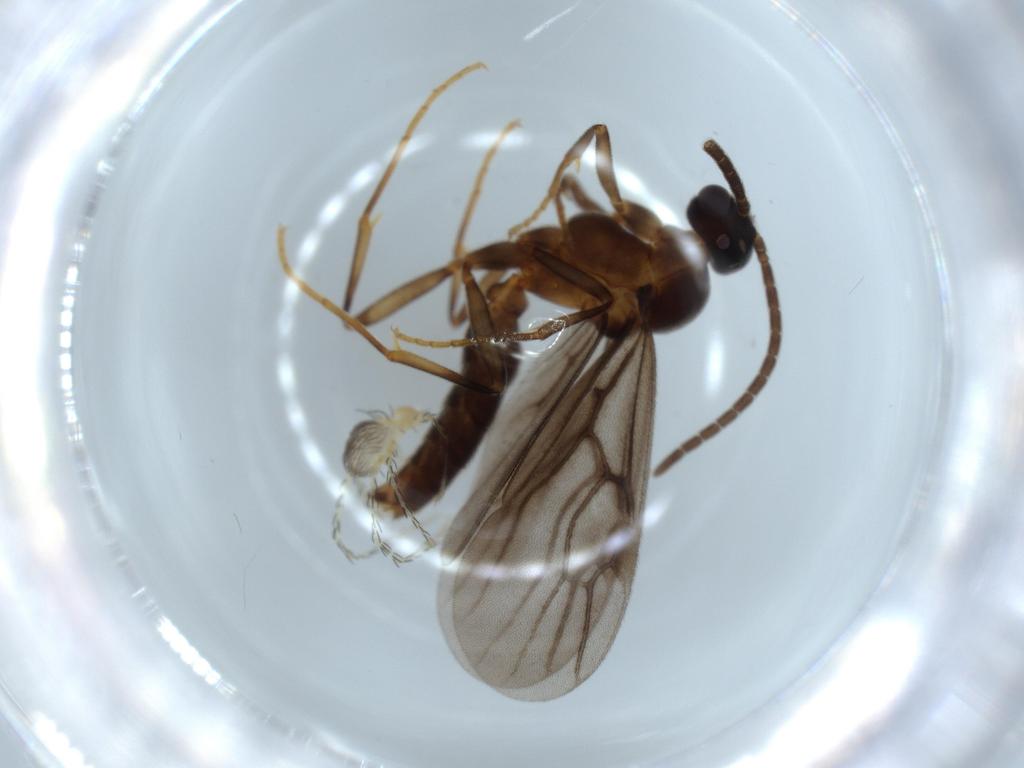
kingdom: Animalia
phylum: Arthropoda
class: Insecta
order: Hymenoptera
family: Formicidae
